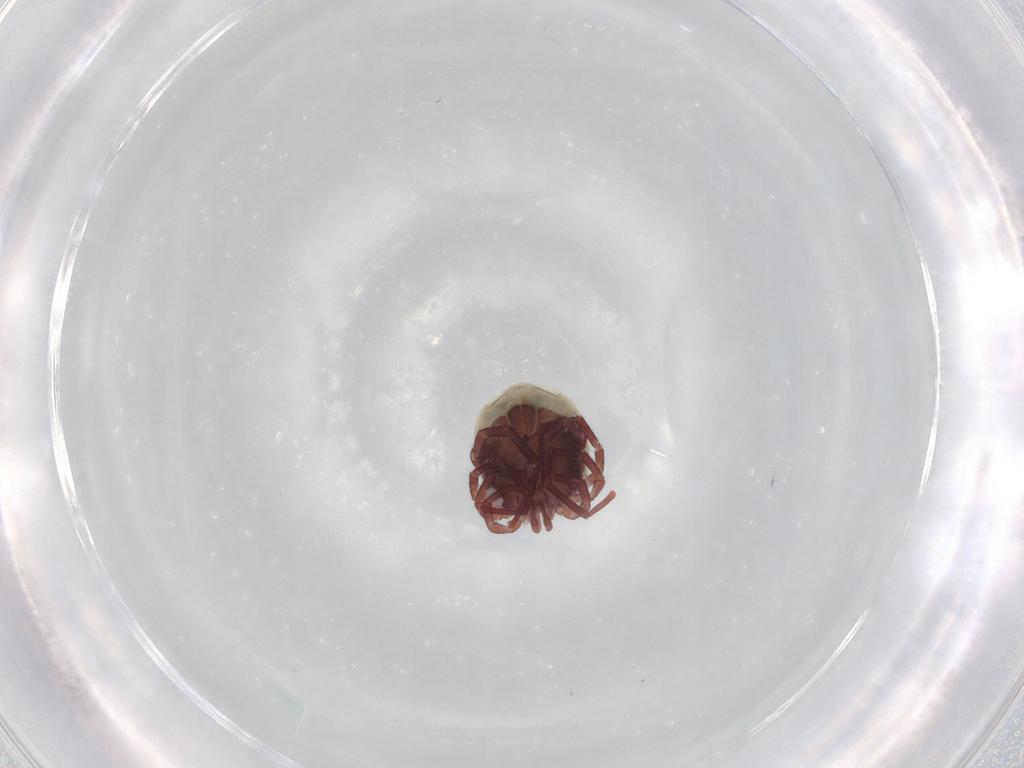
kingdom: Animalia
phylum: Arthropoda
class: Arachnida
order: Trombidiformes
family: Lebertiidae
